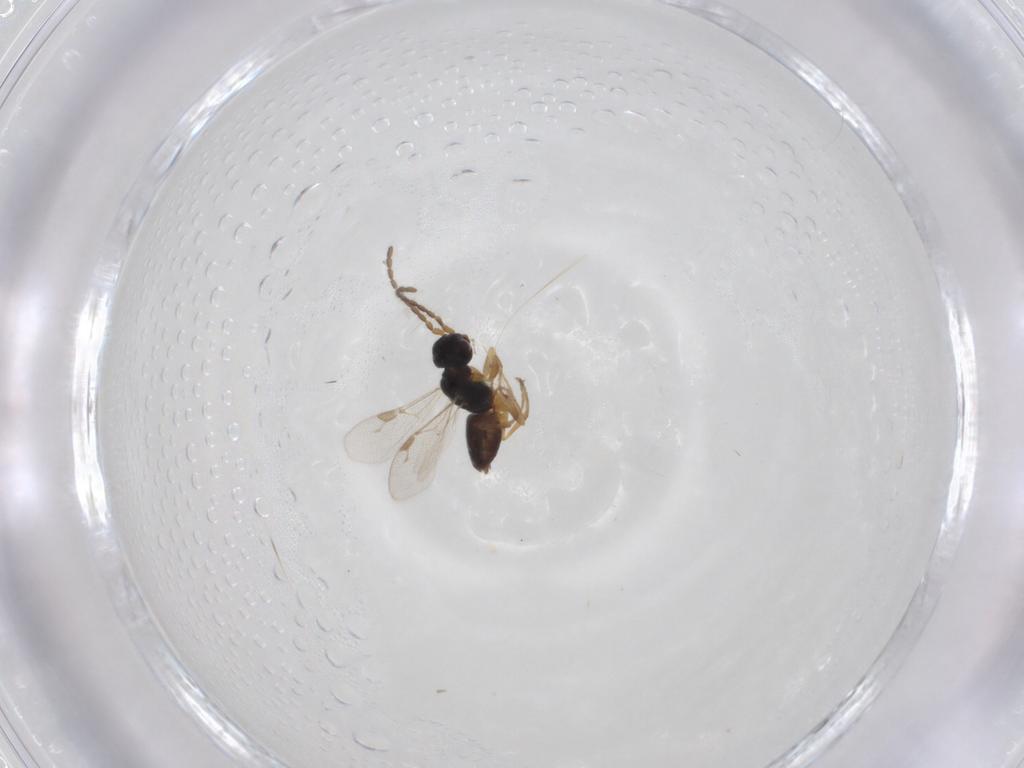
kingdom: Animalia
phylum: Arthropoda
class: Insecta
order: Hymenoptera
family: Dryinidae
